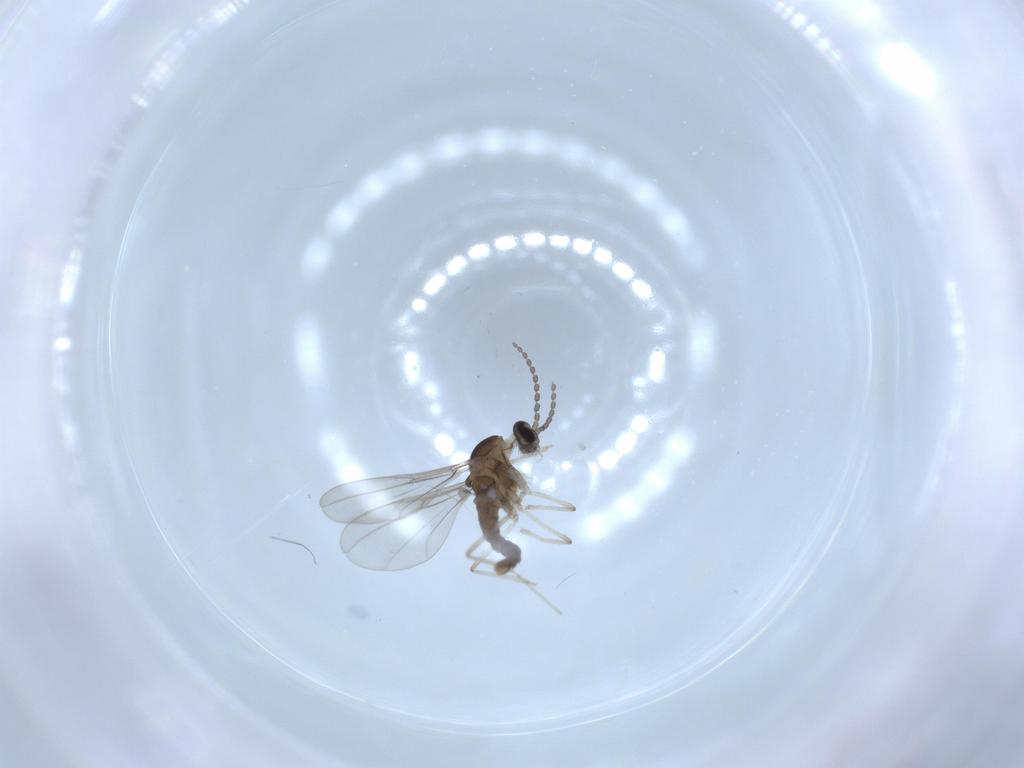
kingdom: Animalia
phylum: Arthropoda
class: Insecta
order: Diptera
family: Cecidomyiidae
